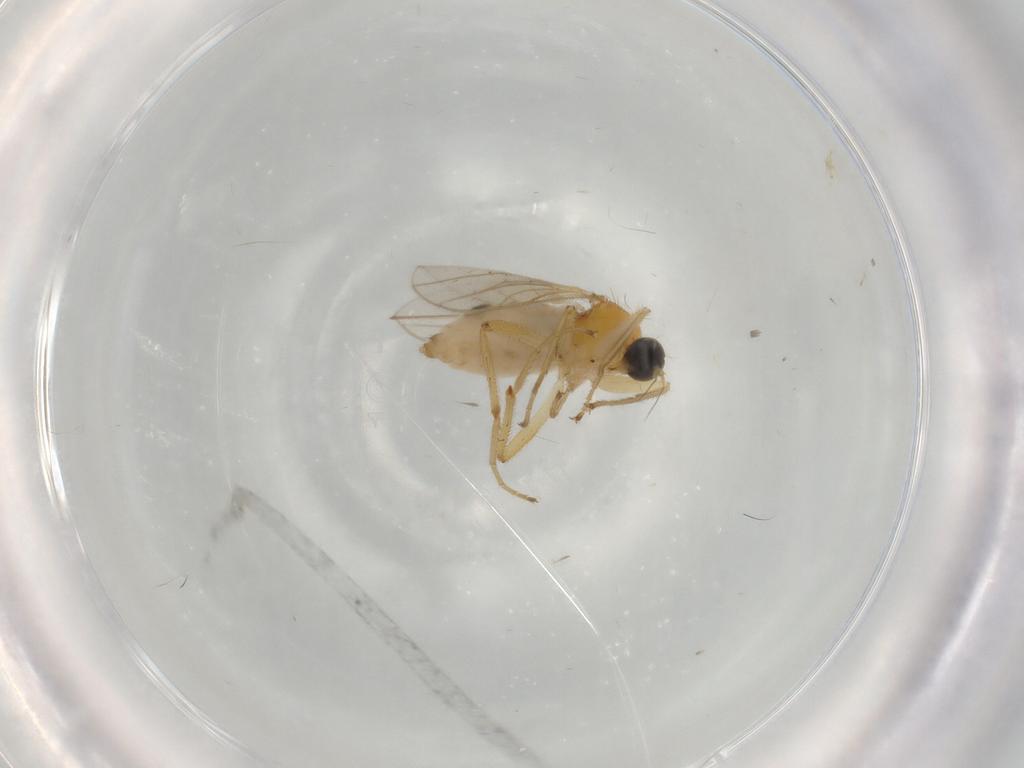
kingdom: Animalia
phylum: Arthropoda
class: Insecta
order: Diptera
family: Hybotidae
